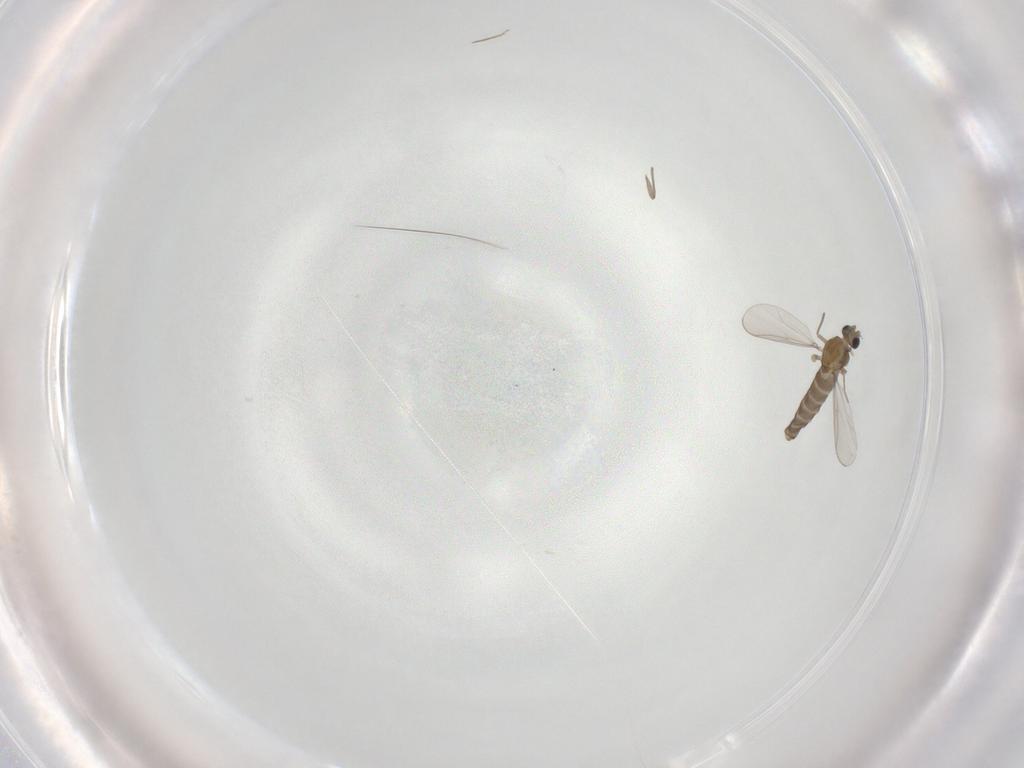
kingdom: Animalia
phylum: Arthropoda
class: Insecta
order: Diptera
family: Chironomidae
